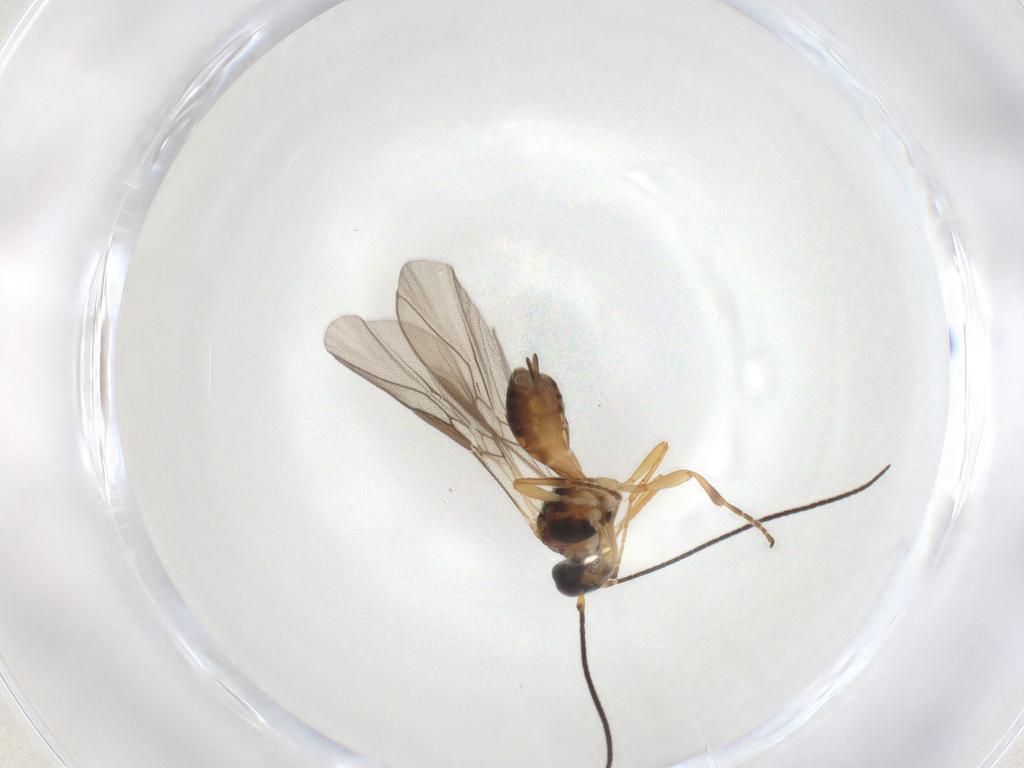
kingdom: Animalia
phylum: Arthropoda
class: Insecta
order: Hymenoptera
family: Braconidae
